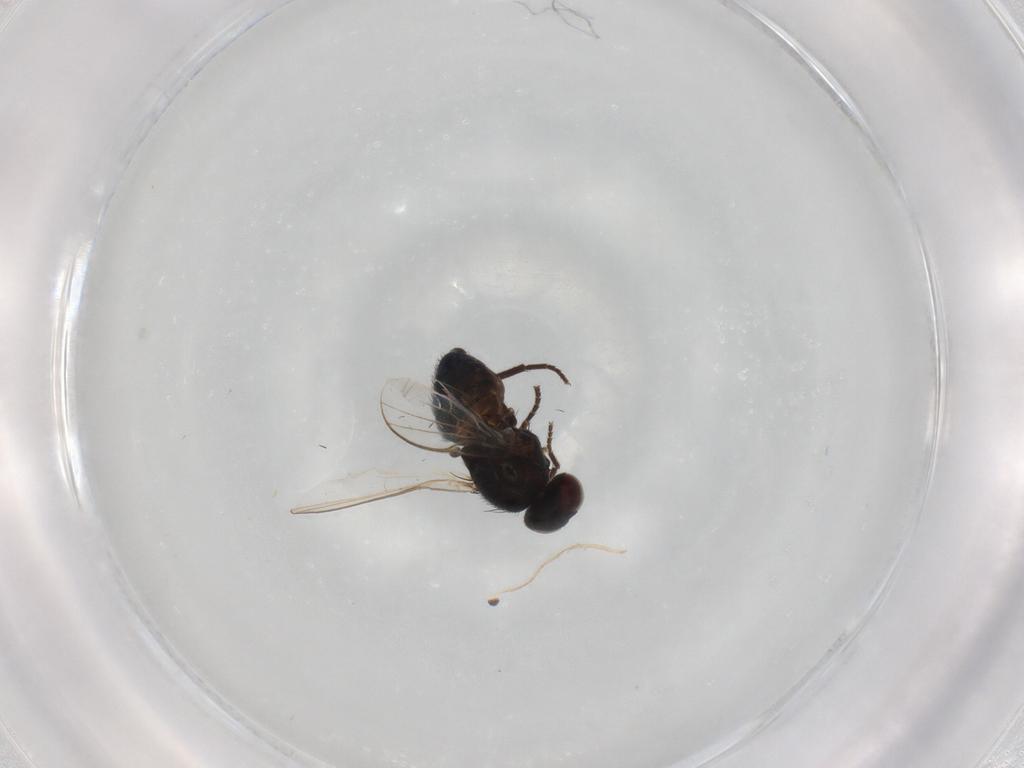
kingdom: Animalia
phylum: Arthropoda
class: Insecta
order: Diptera
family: Agromyzidae
